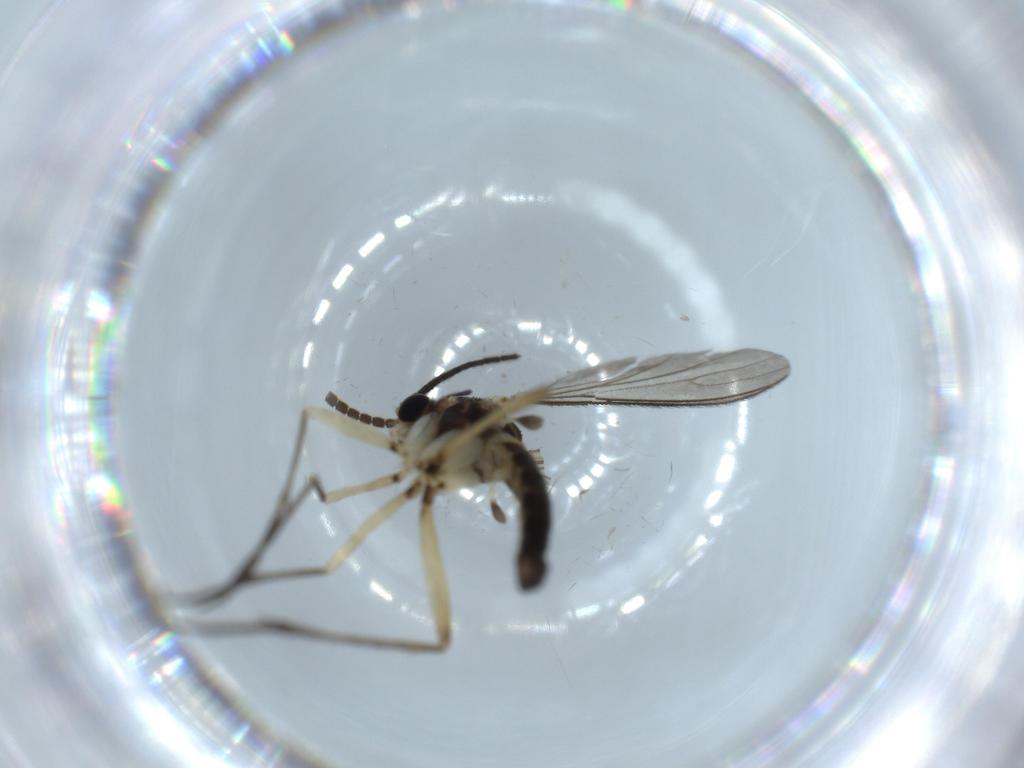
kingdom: Animalia
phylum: Arthropoda
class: Insecta
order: Diptera
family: Sciaridae
